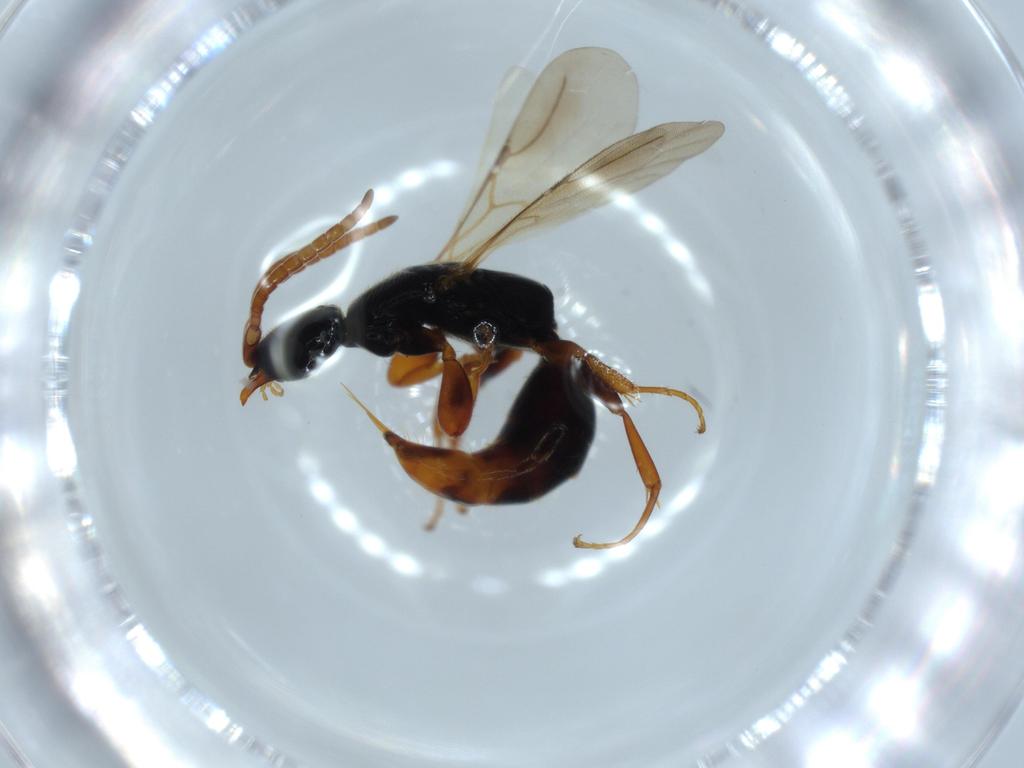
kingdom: Animalia
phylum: Arthropoda
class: Insecta
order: Hymenoptera
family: Bethylidae
